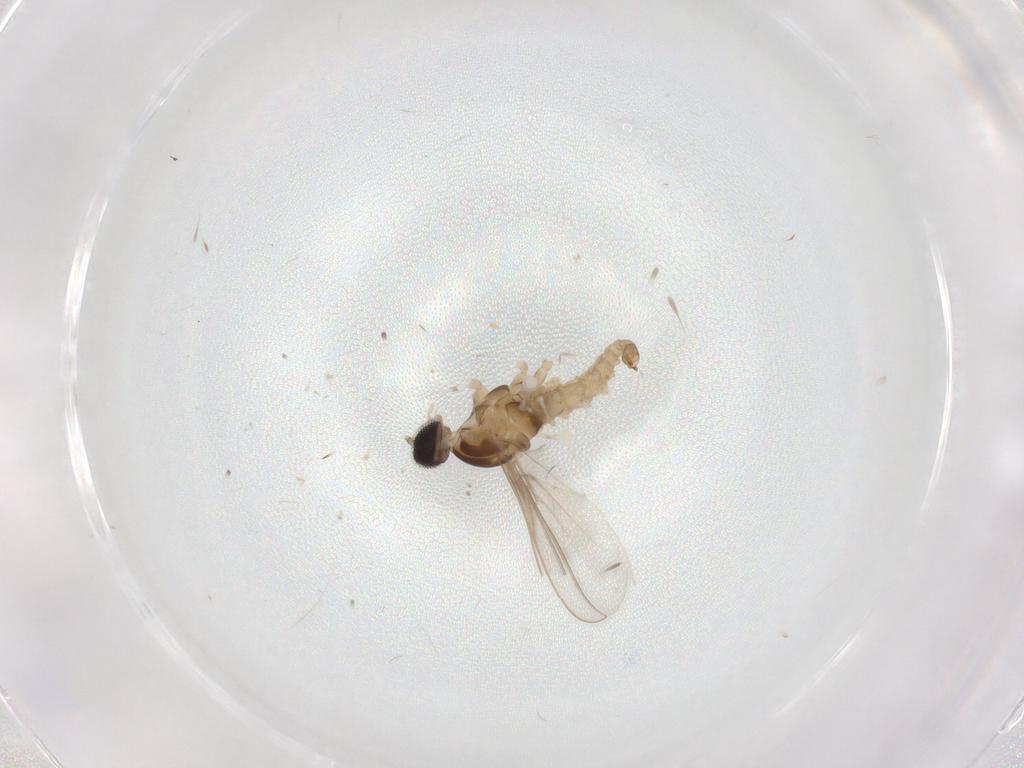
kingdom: Animalia
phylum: Arthropoda
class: Insecta
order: Diptera
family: Cecidomyiidae
